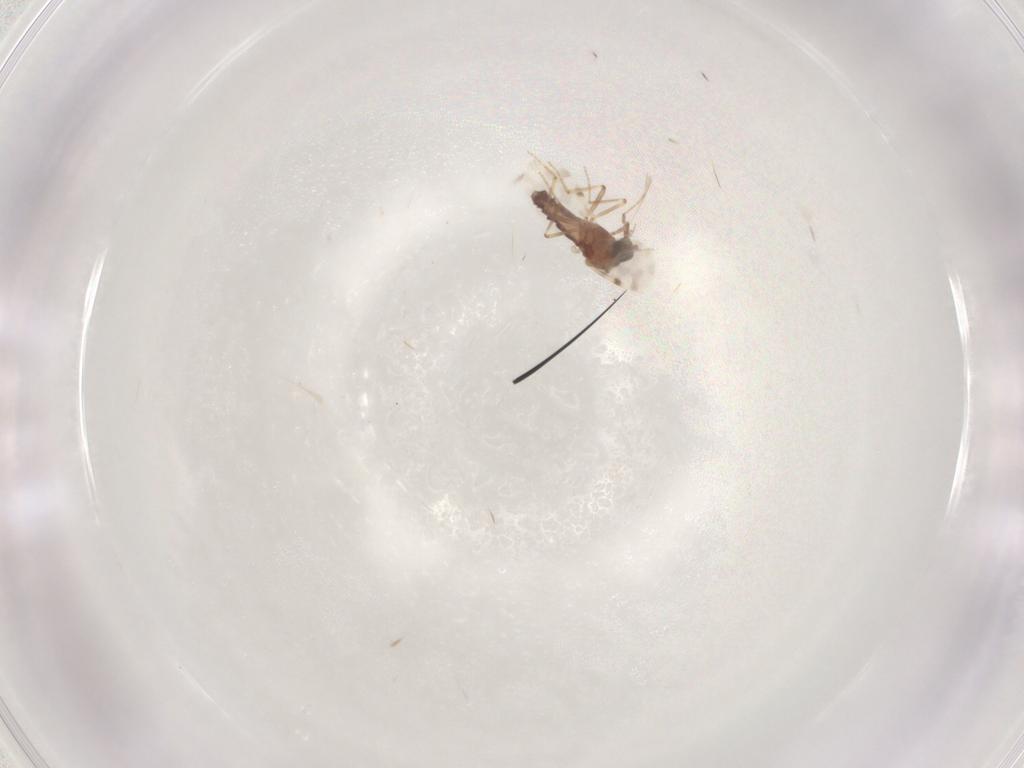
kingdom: Animalia
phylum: Arthropoda
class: Insecta
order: Diptera
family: Ceratopogonidae
